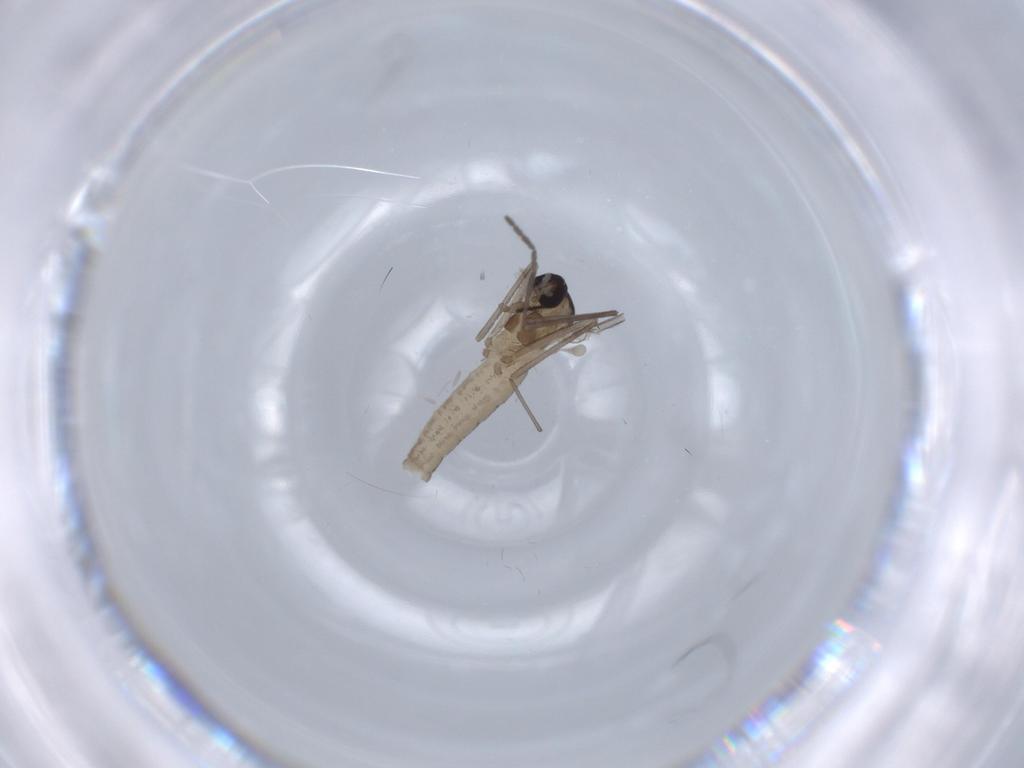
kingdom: Animalia
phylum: Arthropoda
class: Insecta
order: Diptera
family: Keroplatidae
